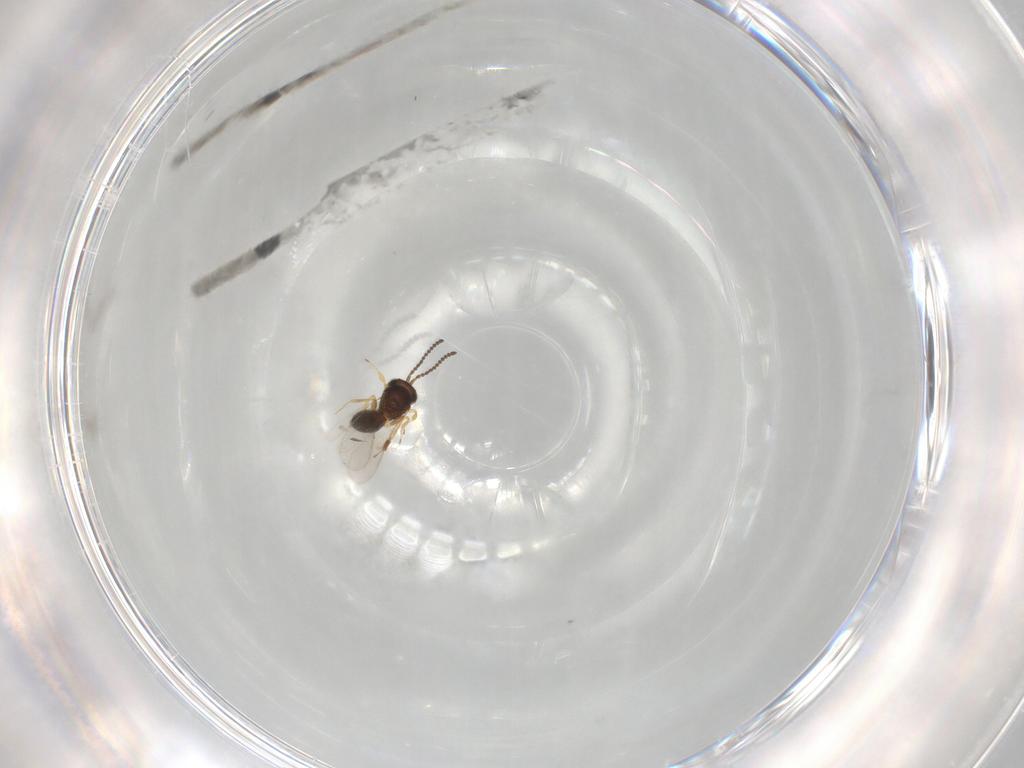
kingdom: Animalia
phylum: Arthropoda
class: Insecta
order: Hymenoptera
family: Scelionidae
